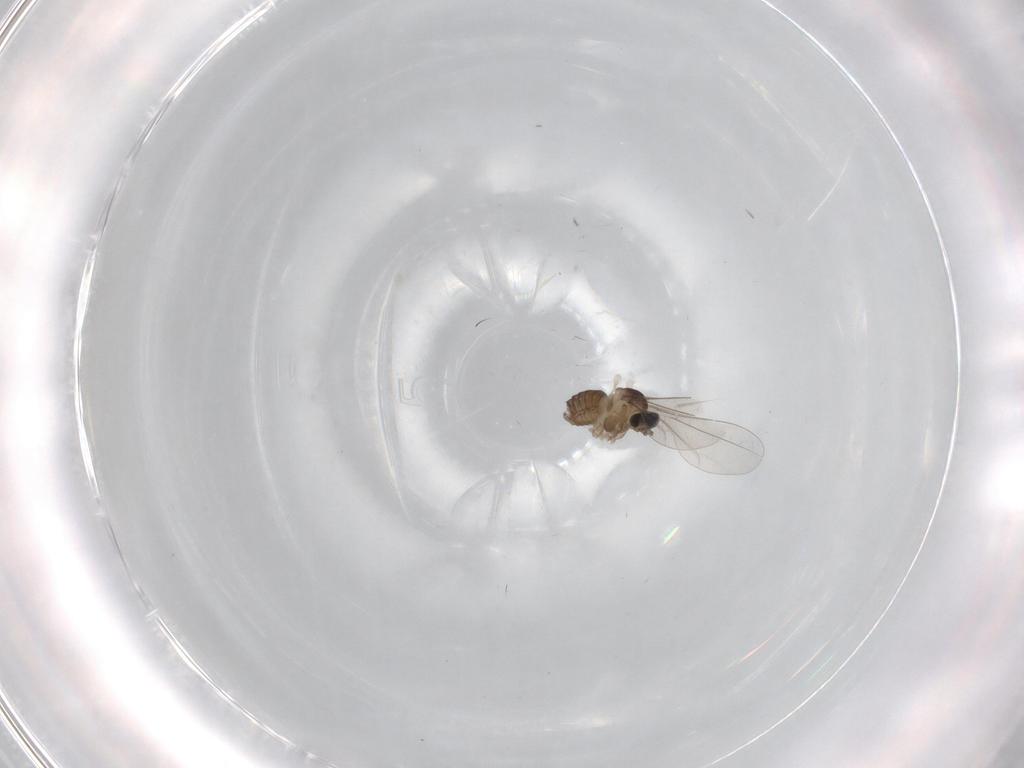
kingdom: Animalia
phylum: Arthropoda
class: Insecta
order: Diptera
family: Cecidomyiidae
